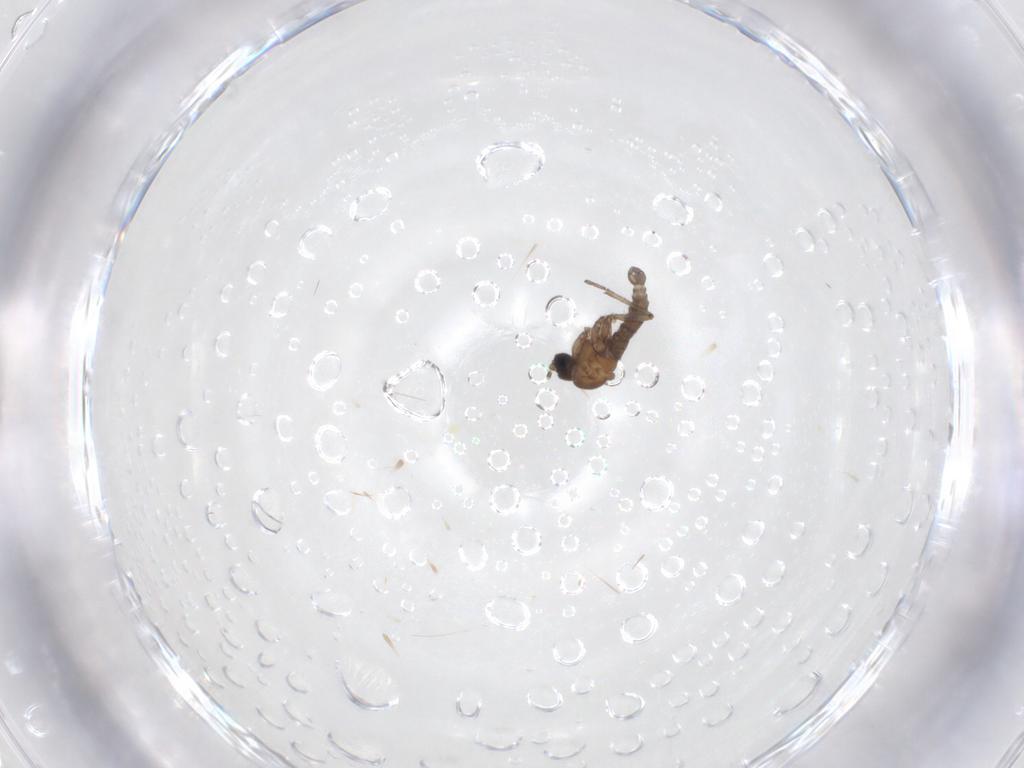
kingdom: Animalia
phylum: Arthropoda
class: Insecta
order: Diptera
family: Sciaridae
